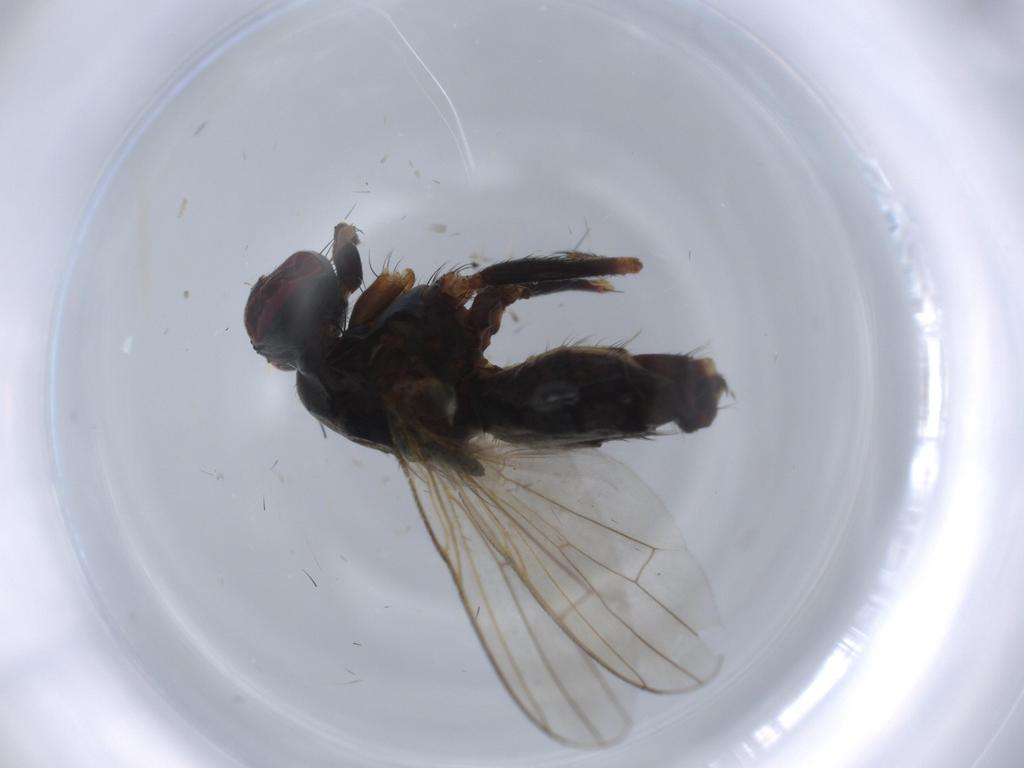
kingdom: Animalia
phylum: Arthropoda
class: Insecta
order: Diptera
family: Muscidae
